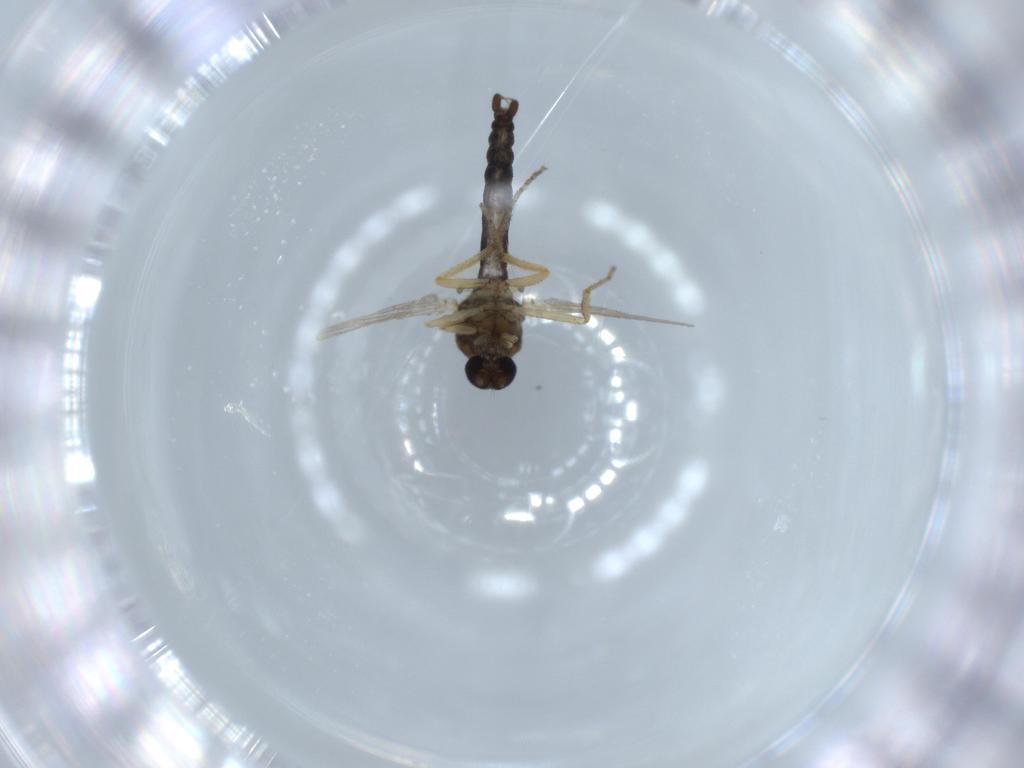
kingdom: Animalia
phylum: Arthropoda
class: Insecta
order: Diptera
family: Ceratopogonidae
